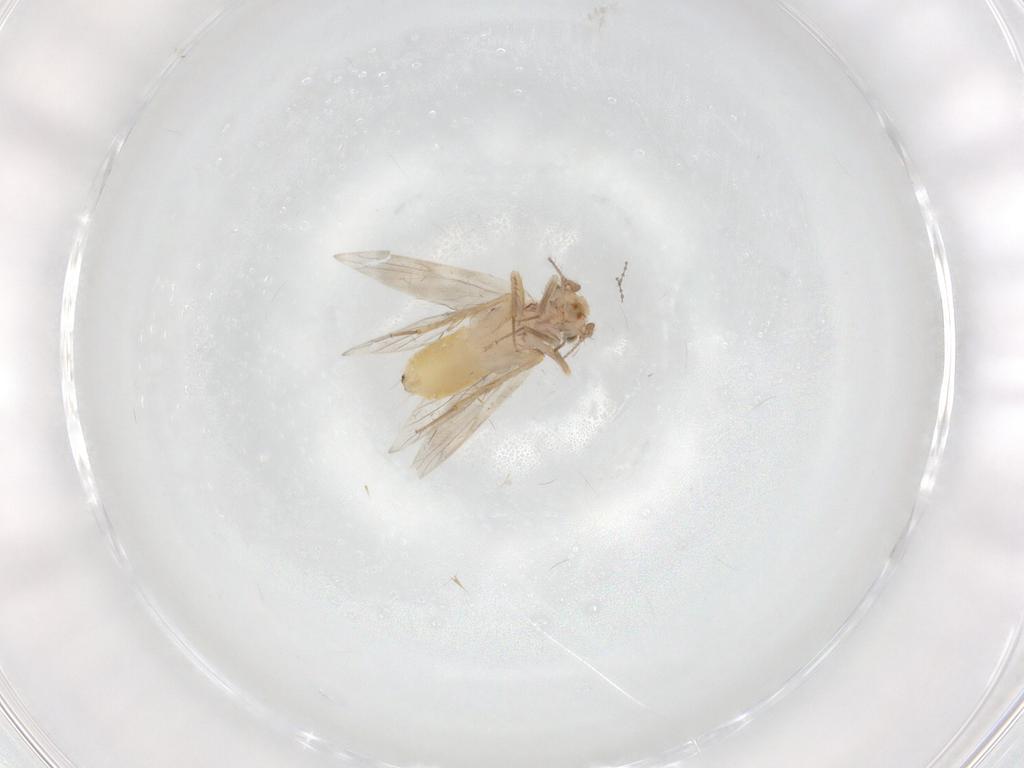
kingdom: Animalia
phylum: Arthropoda
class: Insecta
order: Psocodea
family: Lepidopsocidae
